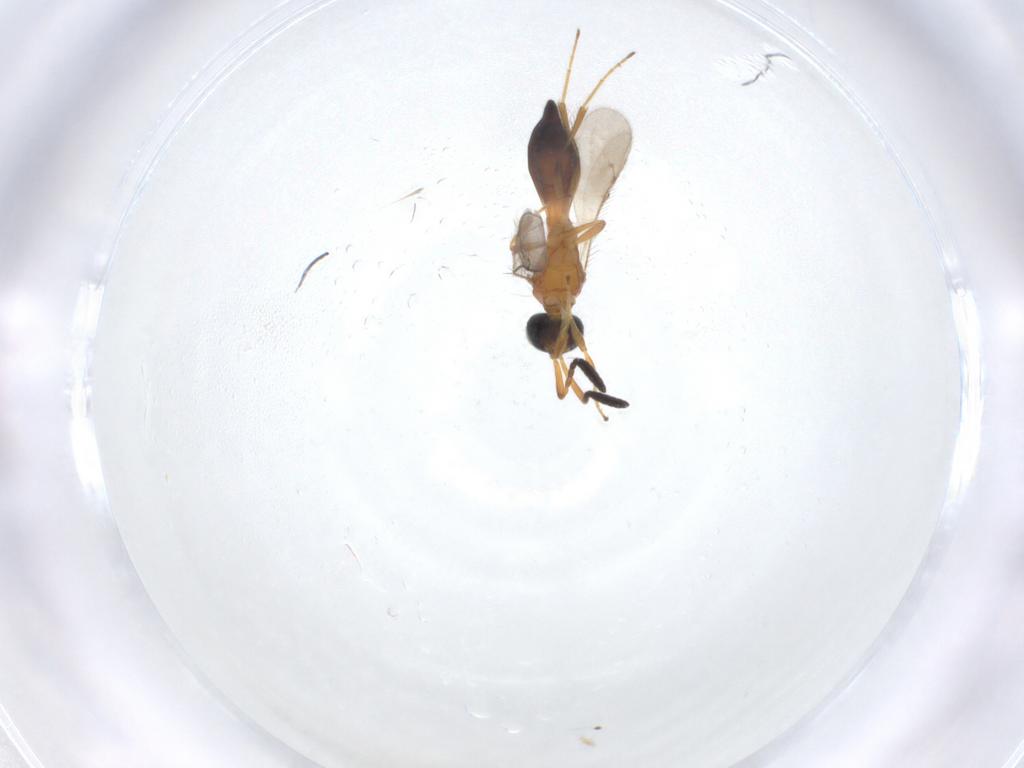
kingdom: Animalia
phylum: Arthropoda
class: Insecta
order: Hymenoptera
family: Scelionidae
